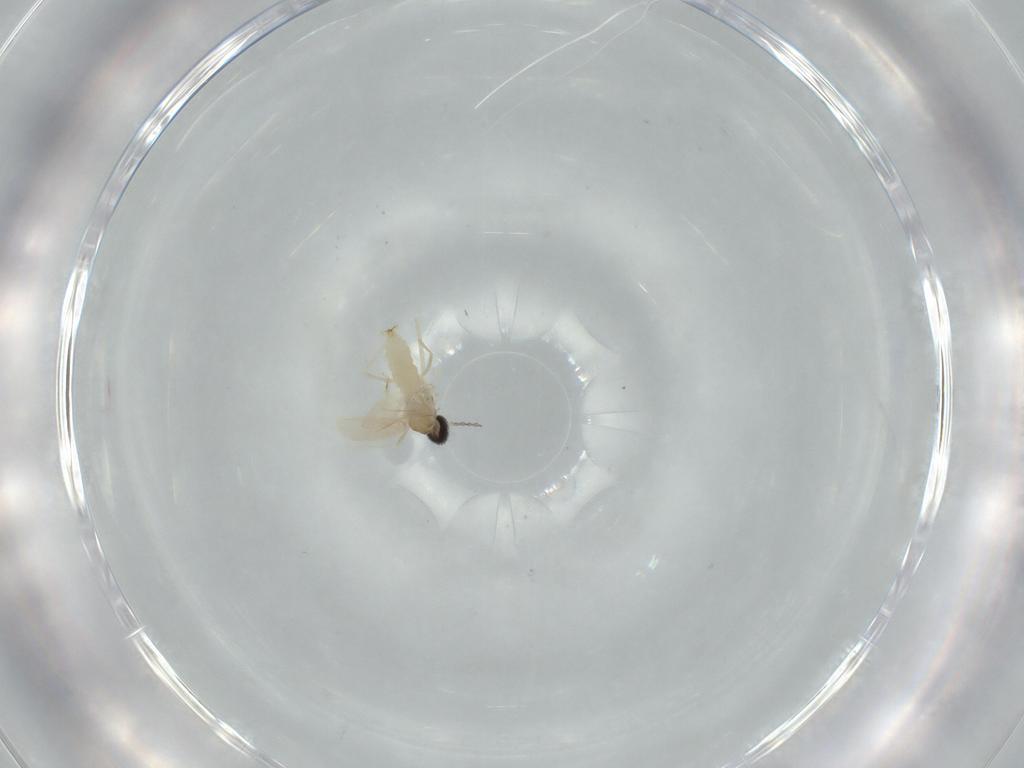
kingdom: Animalia
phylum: Arthropoda
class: Insecta
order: Diptera
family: Cecidomyiidae
